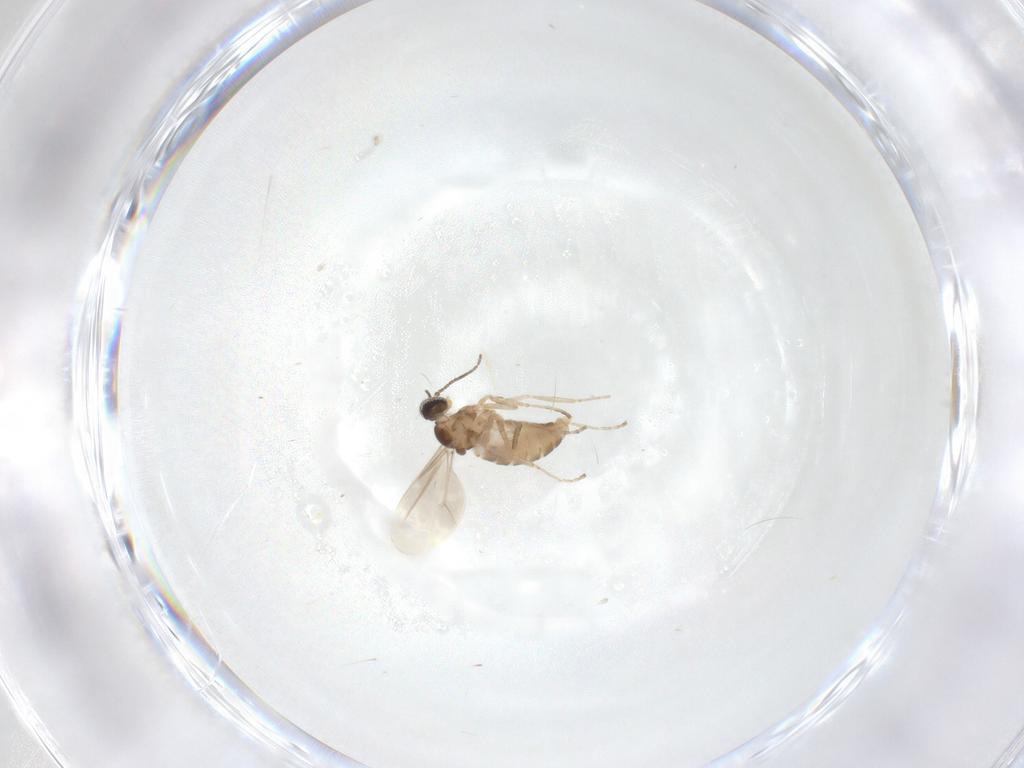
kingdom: Animalia
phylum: Arthropoda
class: Insecta
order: Diptera
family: Cecidomyiidae
